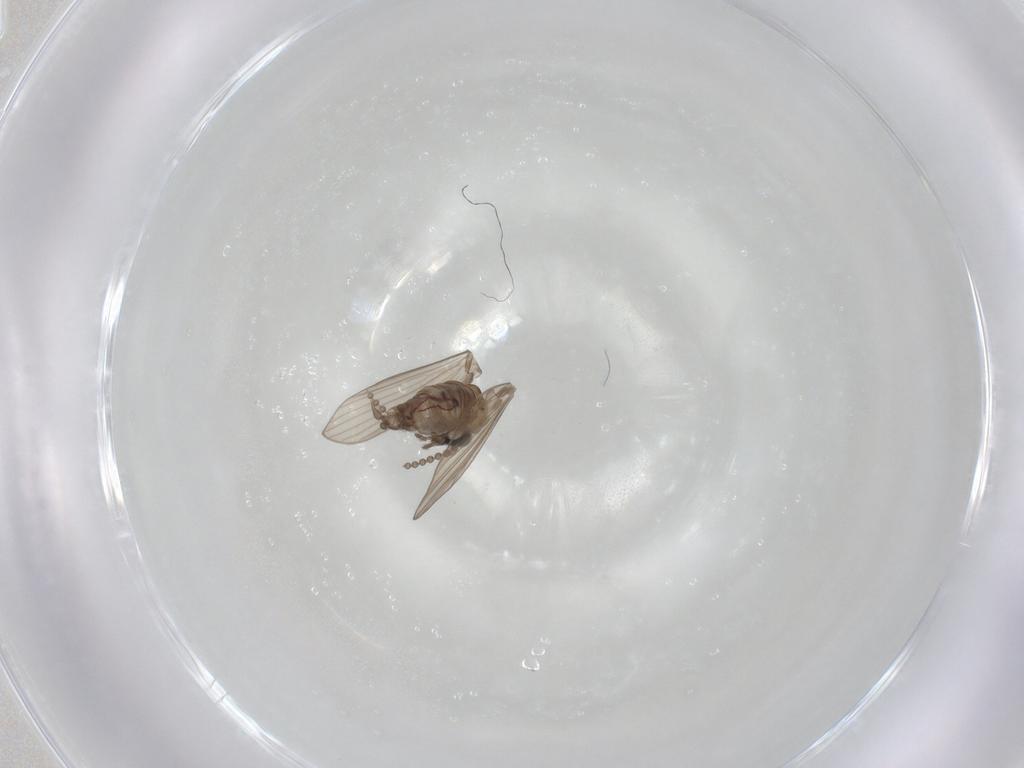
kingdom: Animalia
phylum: Arthropoda
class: Insecta
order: Diptera
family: Psychodidae
